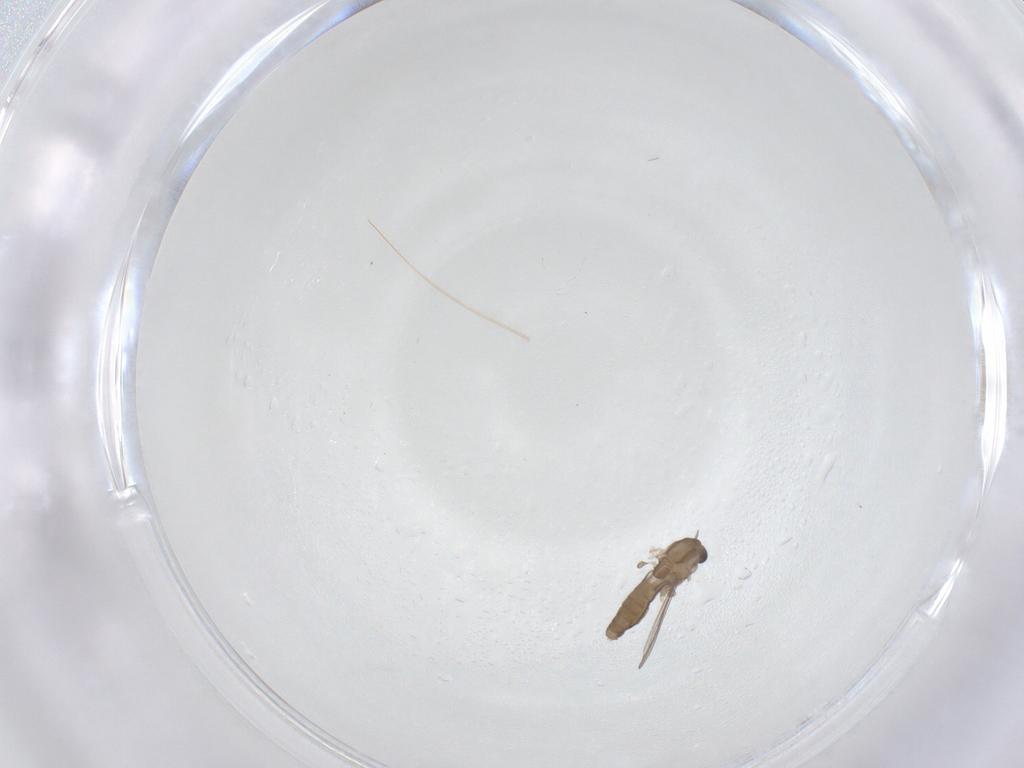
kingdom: Animalia
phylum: Arthropoda
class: Insecta
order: Diptera
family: Chironomidae
